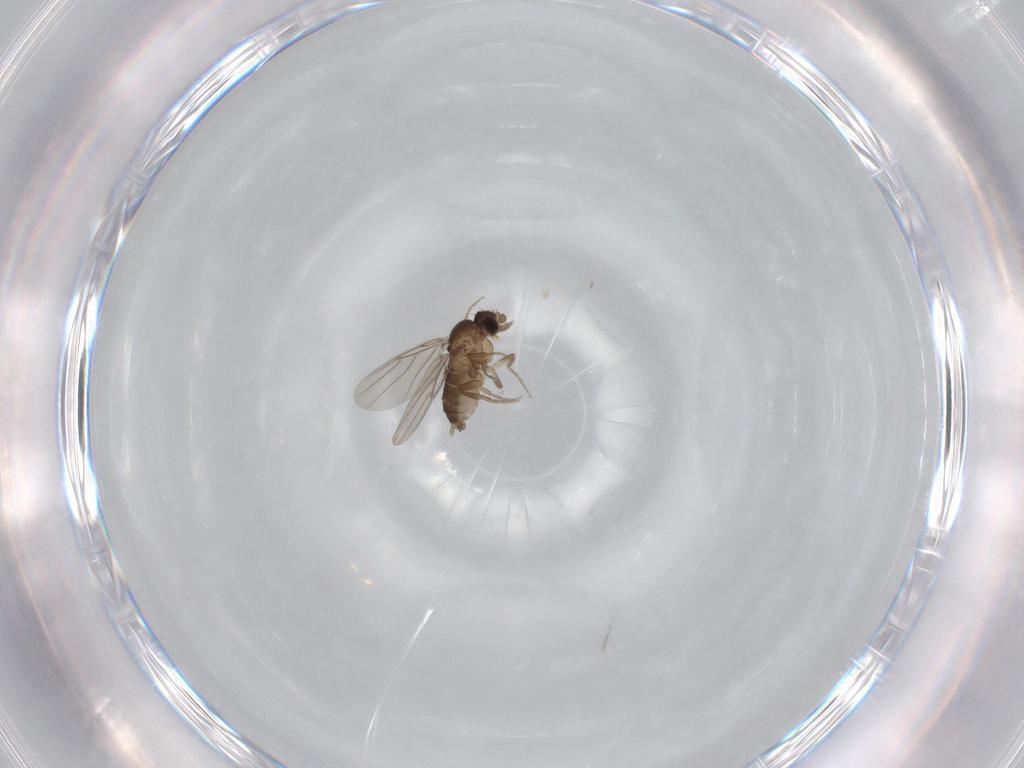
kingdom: Animalia
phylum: Arthropoda
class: Insecta
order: Diptera
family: Phoridae
